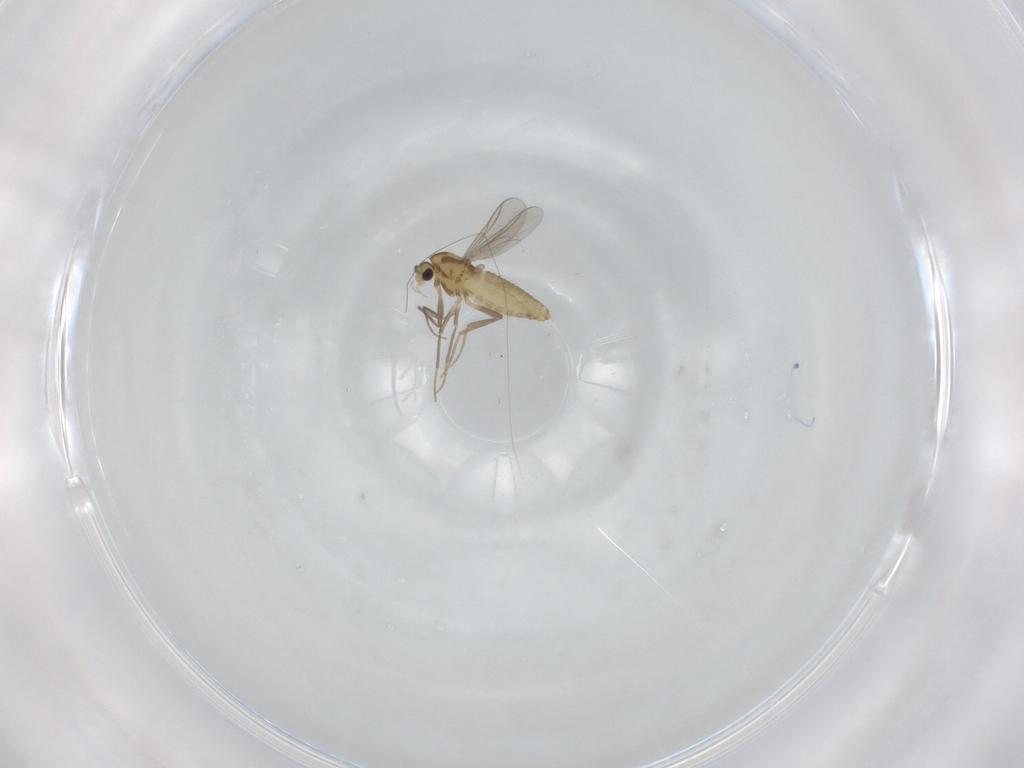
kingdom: Animalia
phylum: Arthropoda
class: Insecta
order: Diptera
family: Chironomidae
